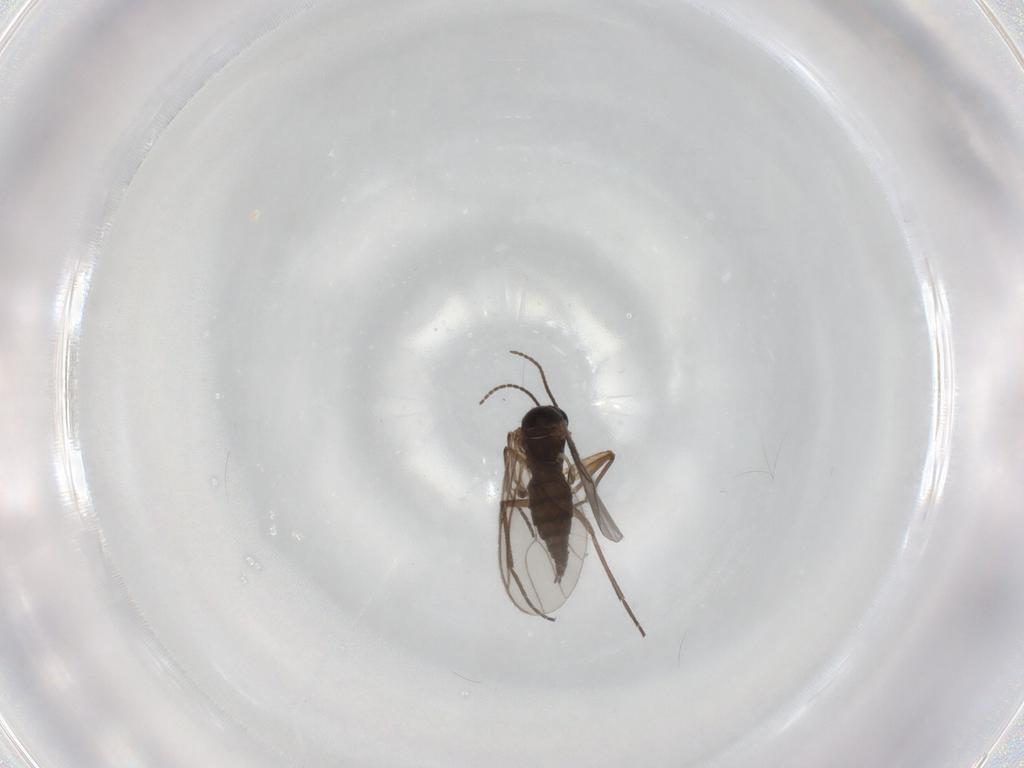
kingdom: Animalia
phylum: Arthropoda
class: Insecta
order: Diptera
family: Sciaridae
